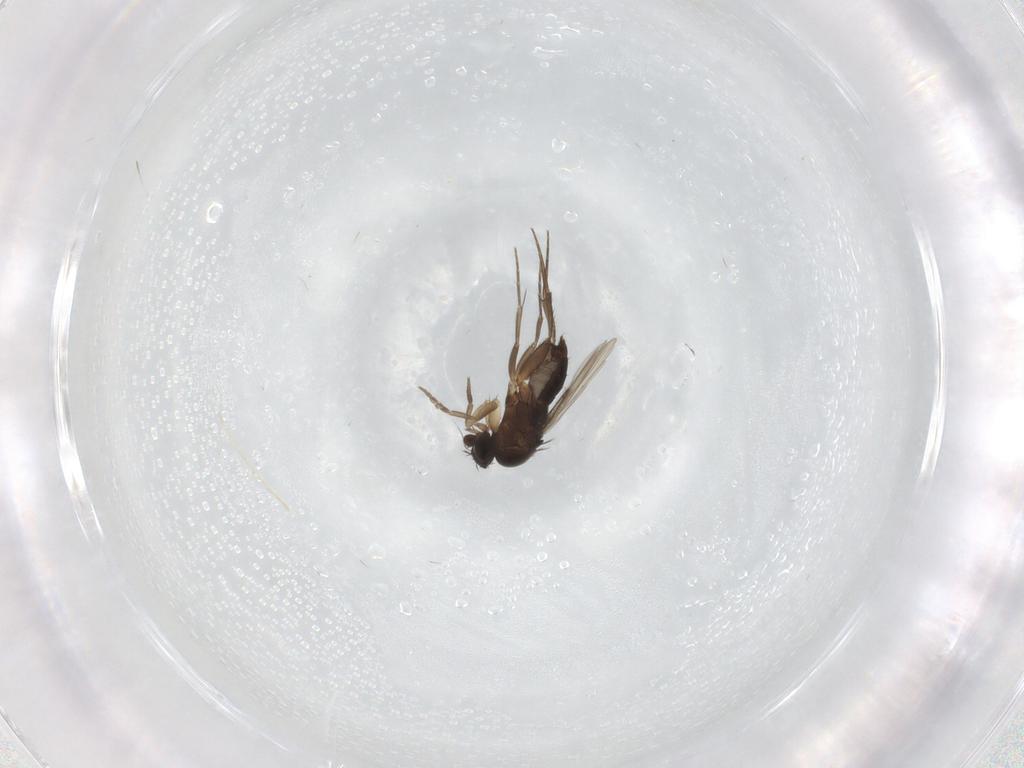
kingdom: Animalia
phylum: Arthropoda
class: Insecta
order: Diptera
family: Phoridae
